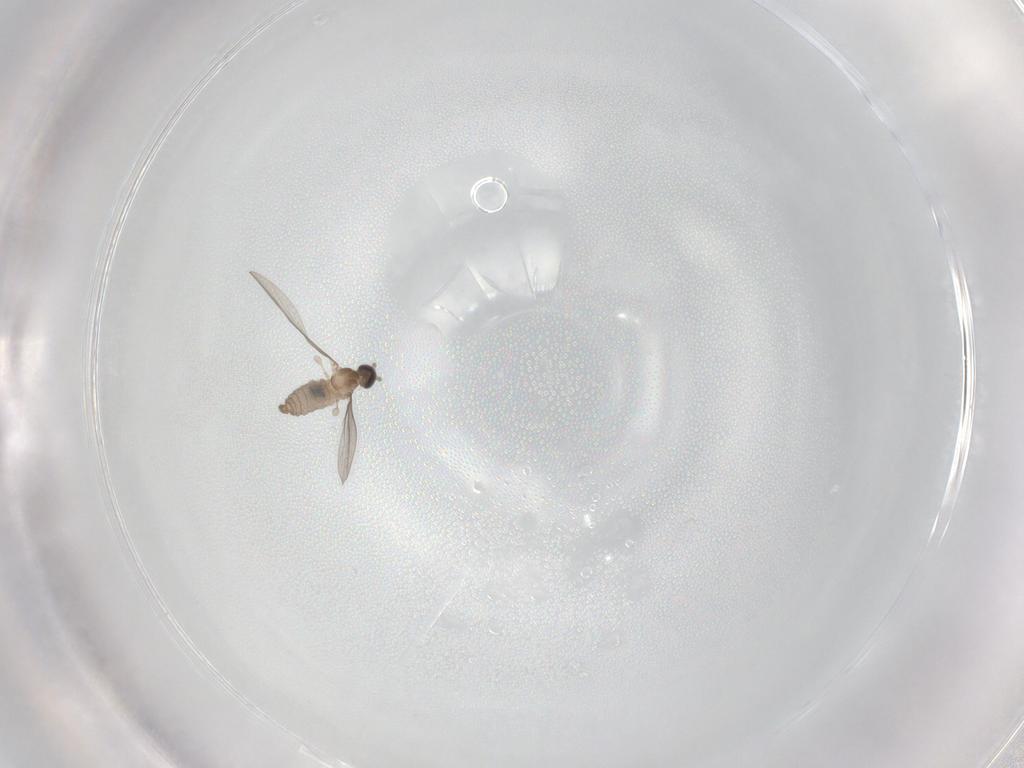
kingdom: Animalia
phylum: Arthropoda
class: Insecta
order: Diptera
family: Cecidomyiidae
